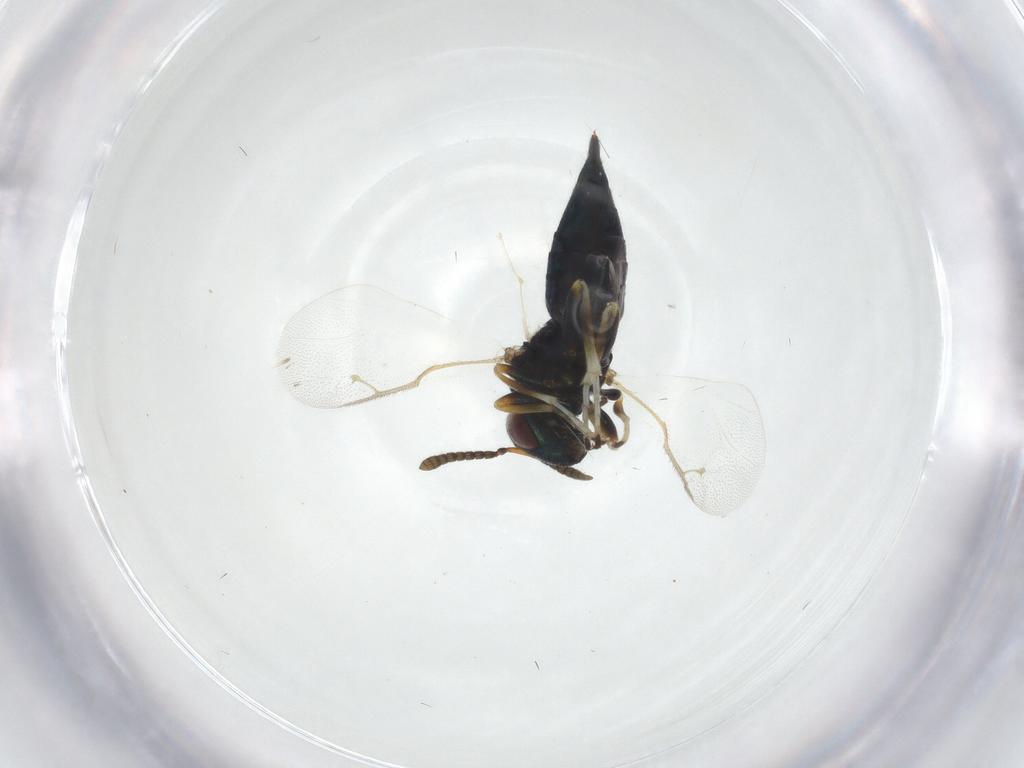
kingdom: Animalia
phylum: Arthropoda
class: Insecta
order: Hymenoptera
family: Pteromalidae
